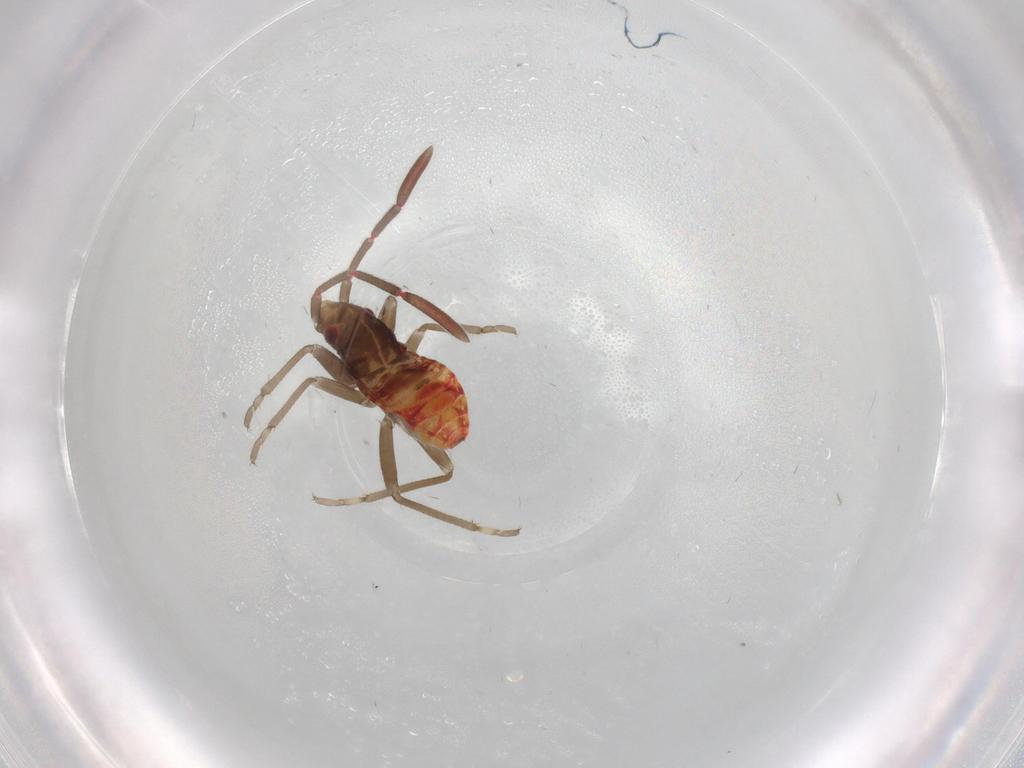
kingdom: Animalia
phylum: Arthropoda
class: Insecta
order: Hemiptera
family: Rhyparochromidae
